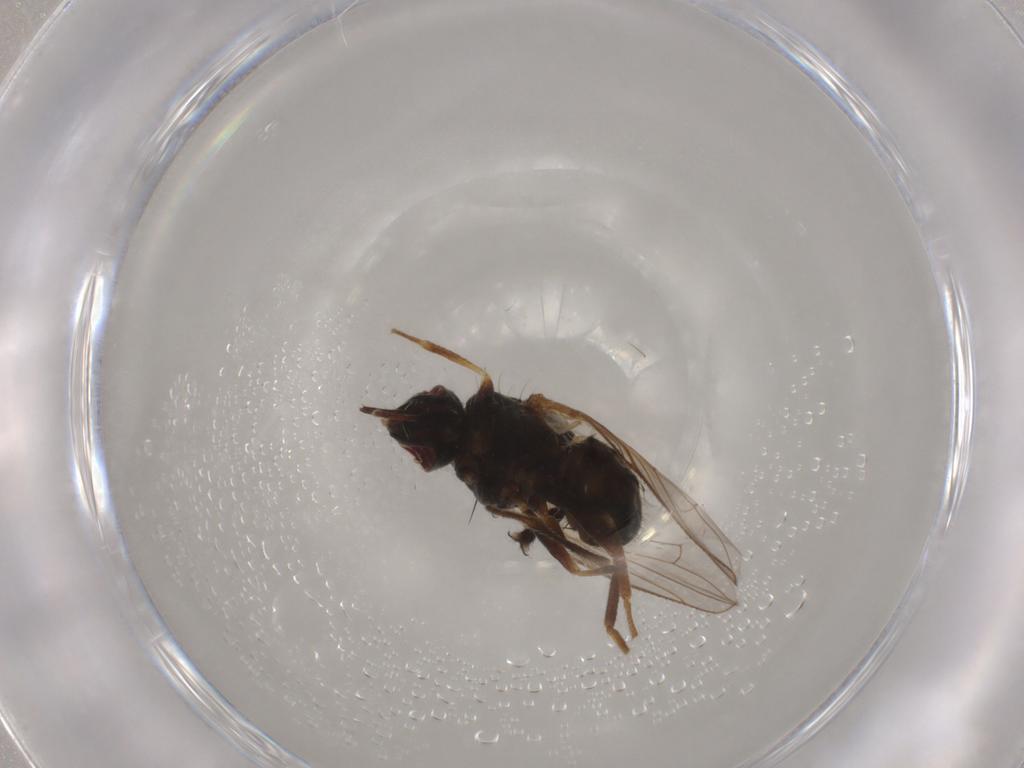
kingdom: Animalia
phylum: Arthropoda
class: Insecta
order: Diptera
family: Muscidae
